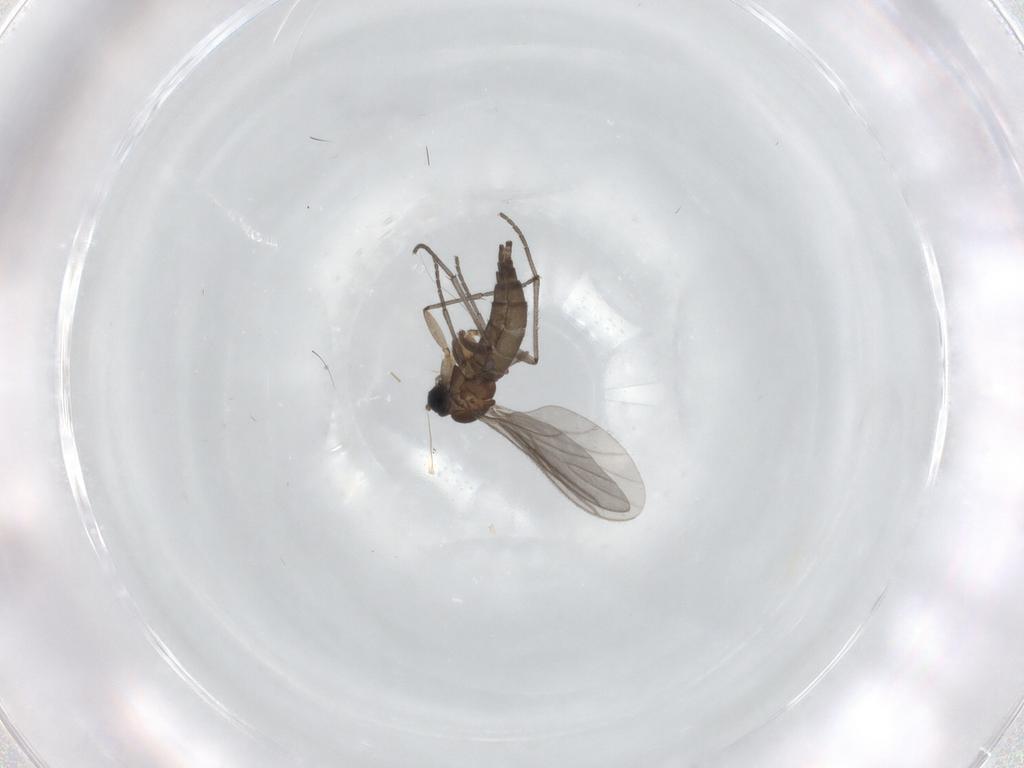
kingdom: Animalia
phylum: Arthropoda
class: Insecta
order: Diptera
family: Sciaridae
